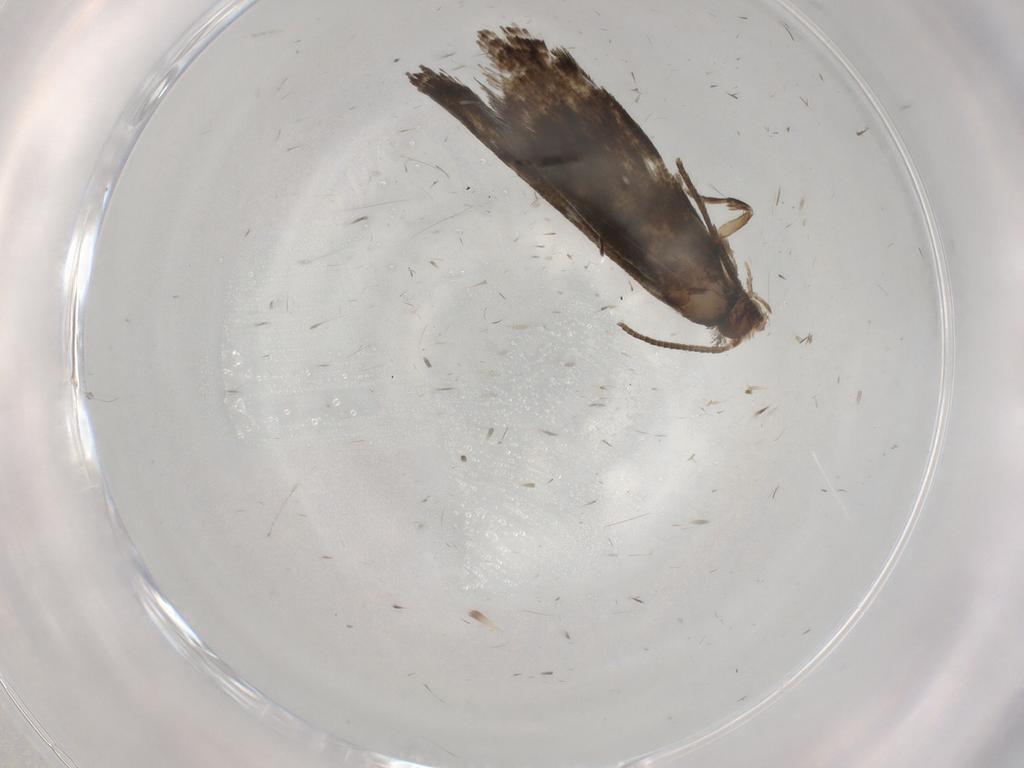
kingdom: Animalia
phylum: Arthropoda
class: Insecta
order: Lepidoptera
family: Tineidae
